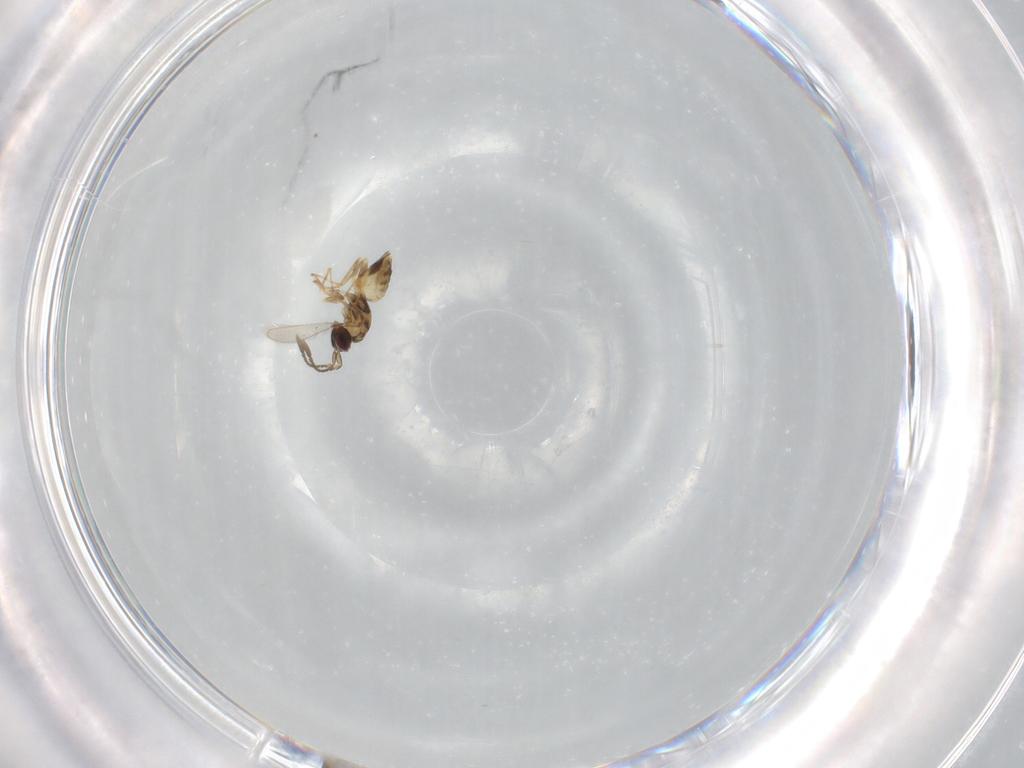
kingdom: Animalia
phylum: Arthropoda
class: Insecta
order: Hymenoptera
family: Mymaridae
